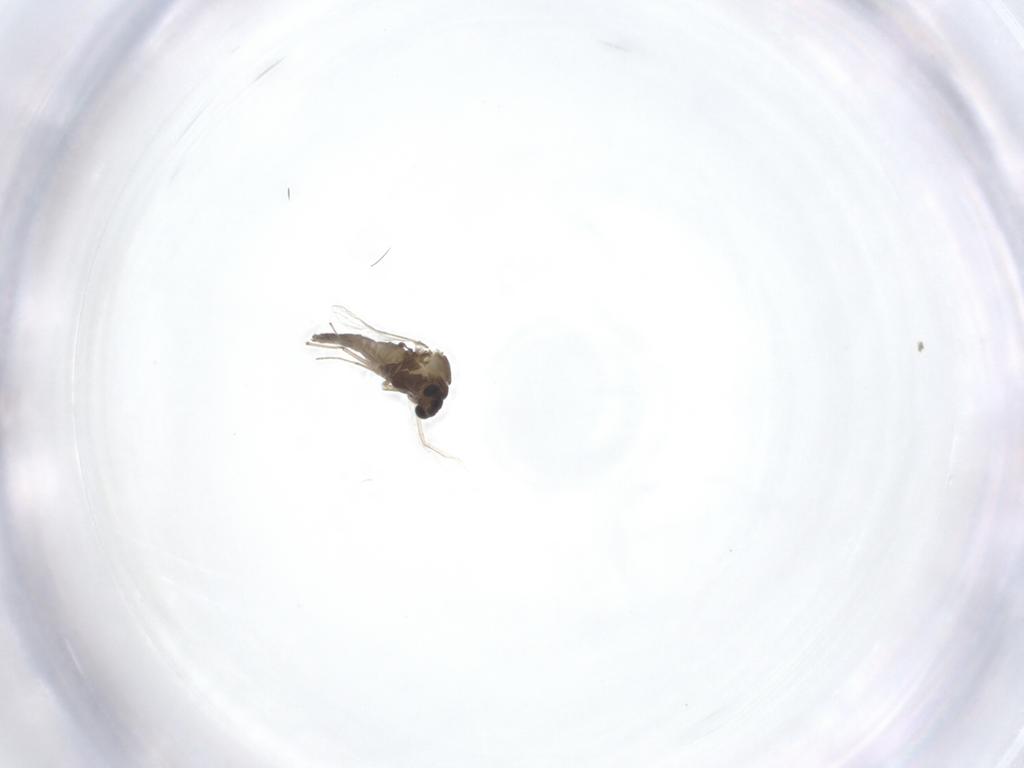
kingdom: Animalia
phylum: Arthropoda
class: Insecta
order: Diptera
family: Chironomidae
